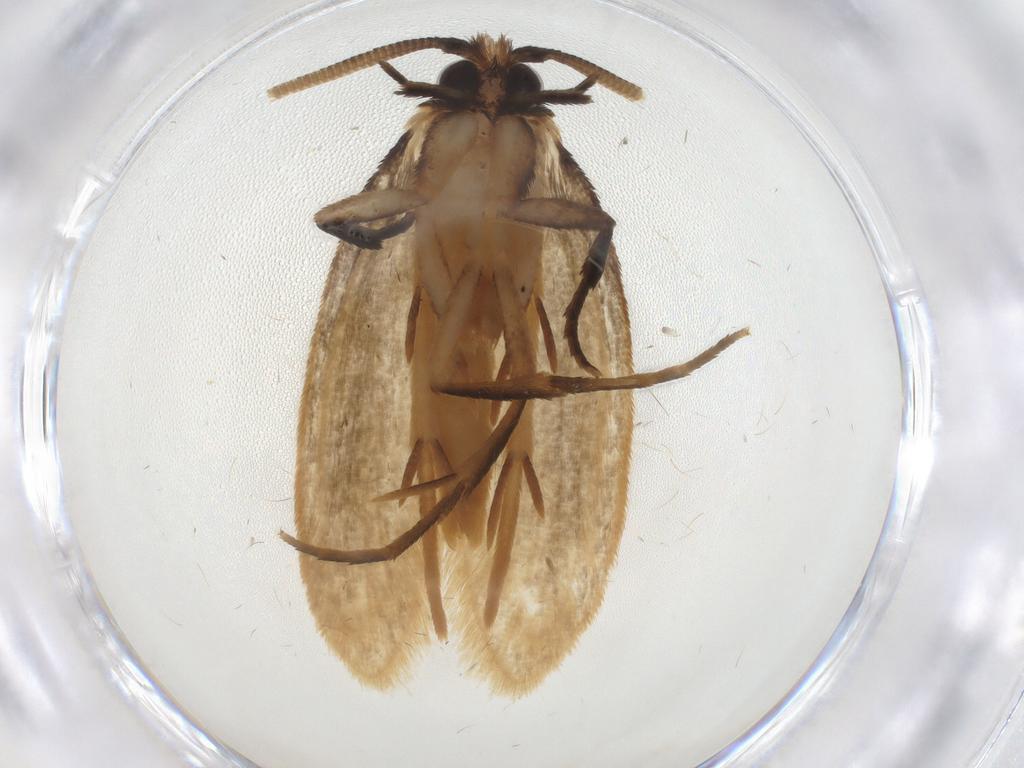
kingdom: Animalia
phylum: Arthropoda
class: Insecta
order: Lepidoptera
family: Tineidae
